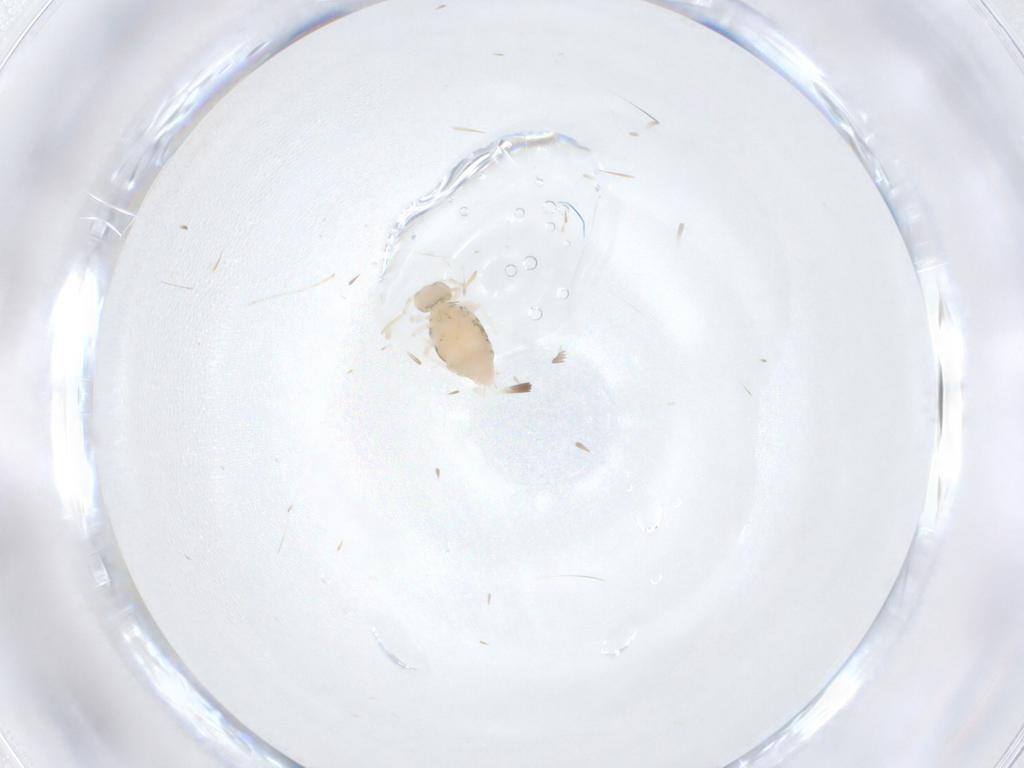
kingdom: Animalia
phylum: Arthropoda
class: Collembola
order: Symphypleona
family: Katiannidae
